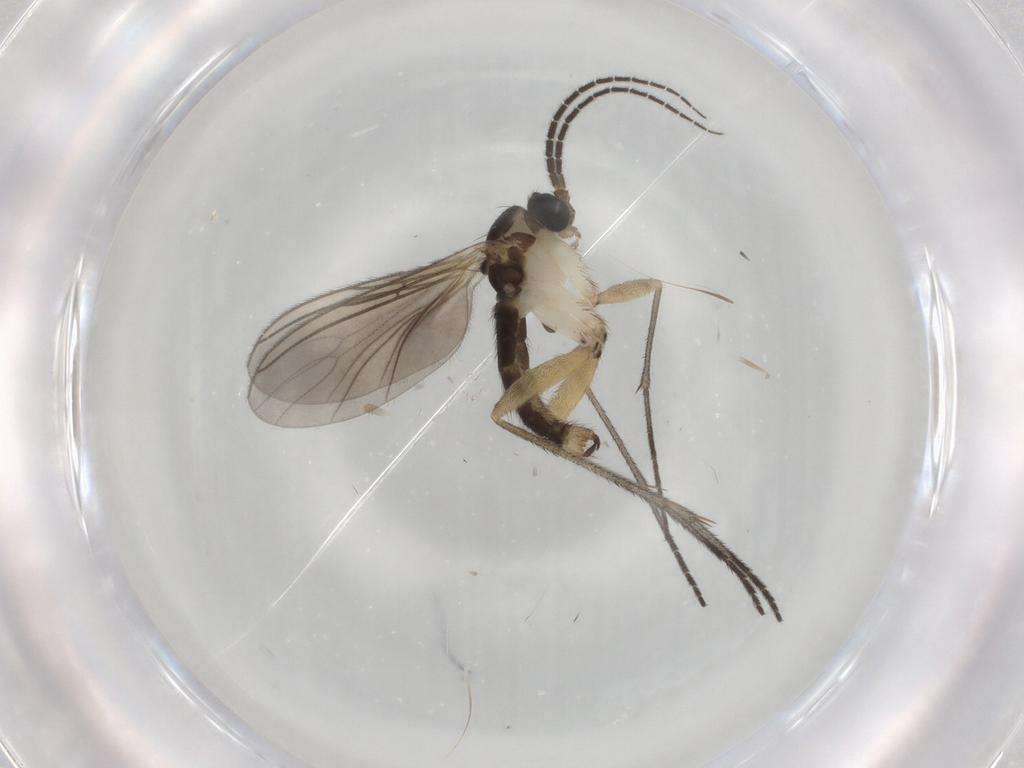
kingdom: Animalia
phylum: Arthropoda
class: Insecta
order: Diptera
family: Sciaridae
